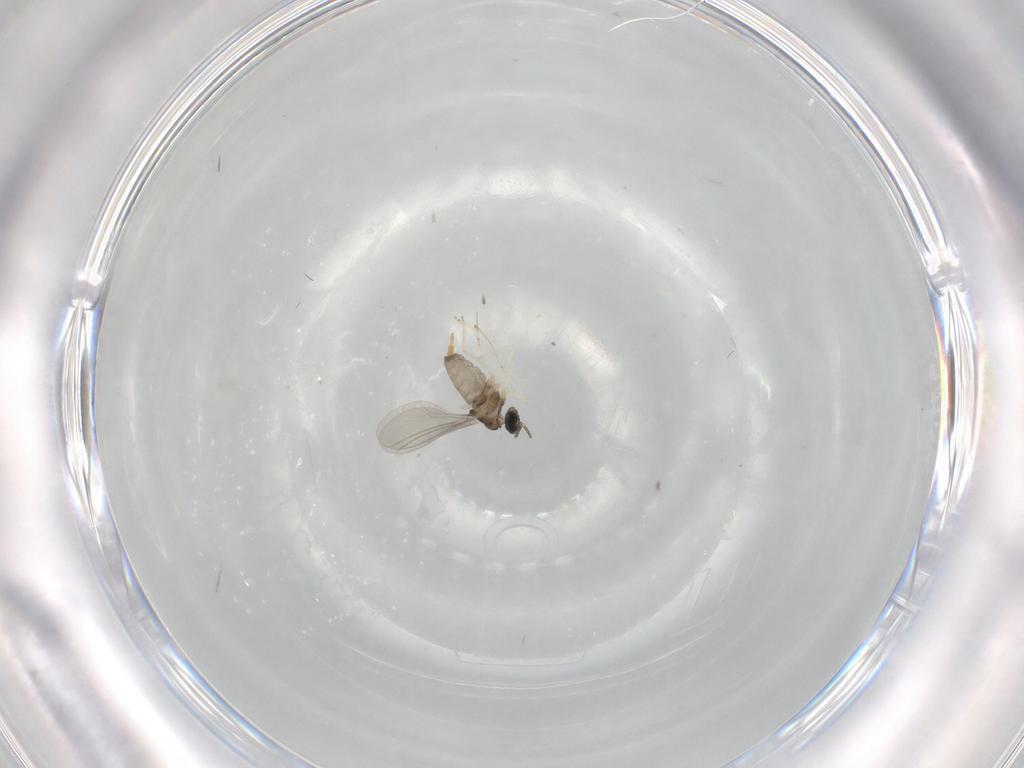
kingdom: Animalia
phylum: Arthropoda
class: Insecta
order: Diptera
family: Cecidomyiidae
